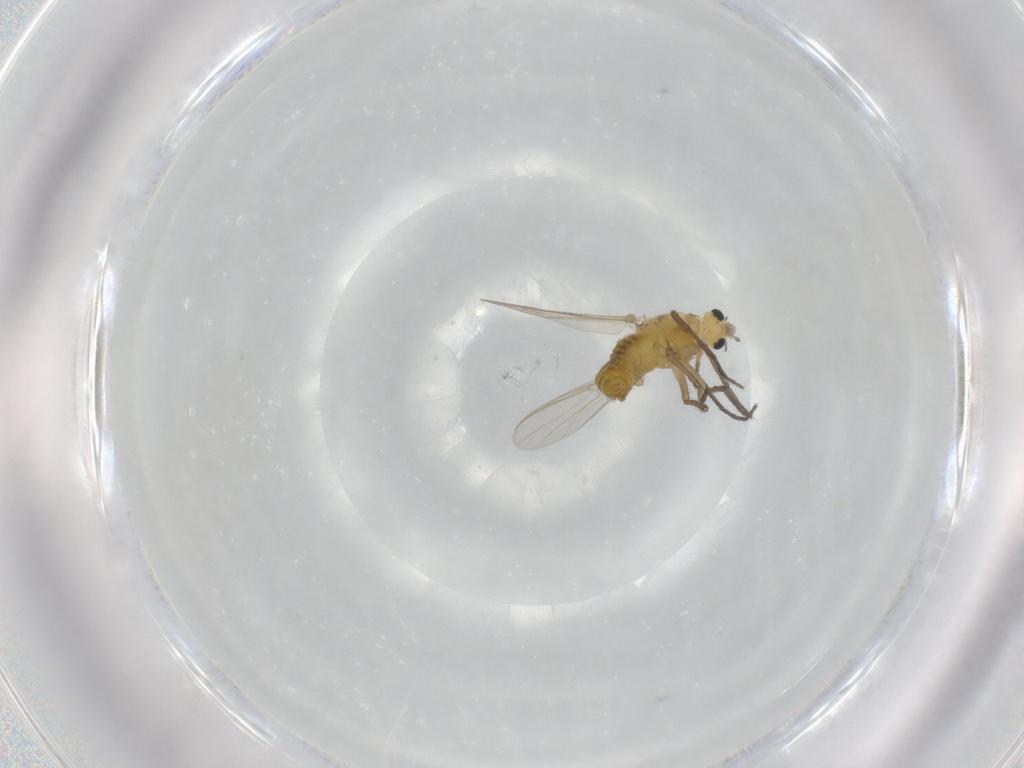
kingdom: Animalia
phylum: Arthropoda
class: Insecta
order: Diptera
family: Chironomidae
